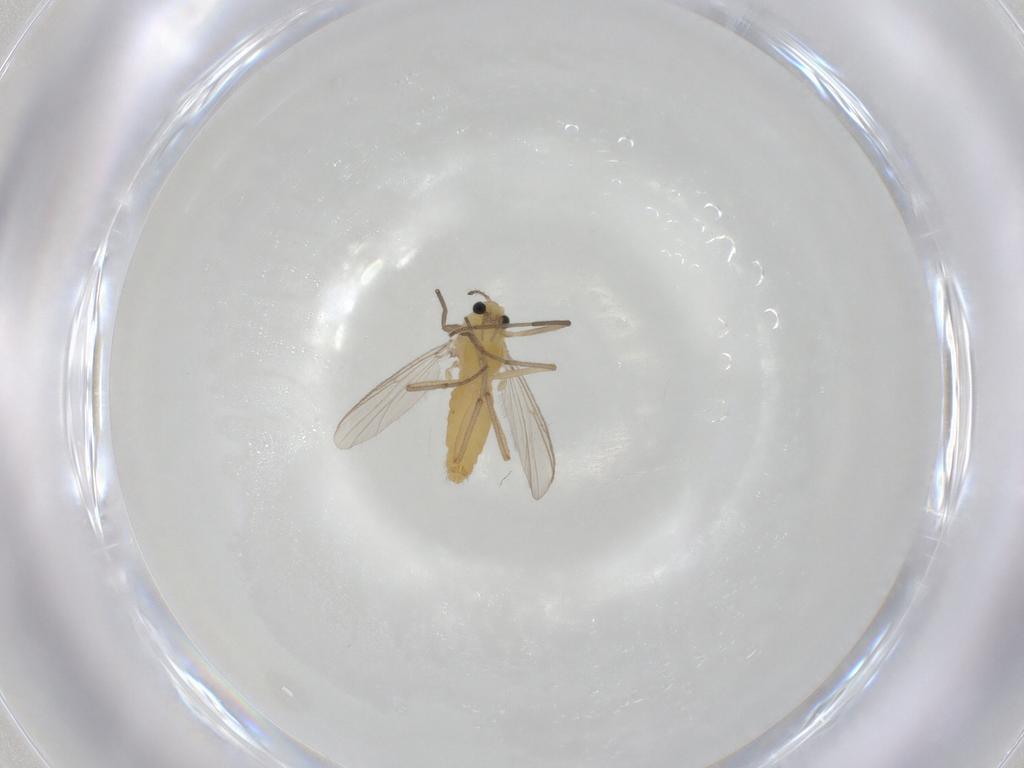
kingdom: Animalia
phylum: Arthropoda
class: Insecta
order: Diptera
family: Chironomidae
